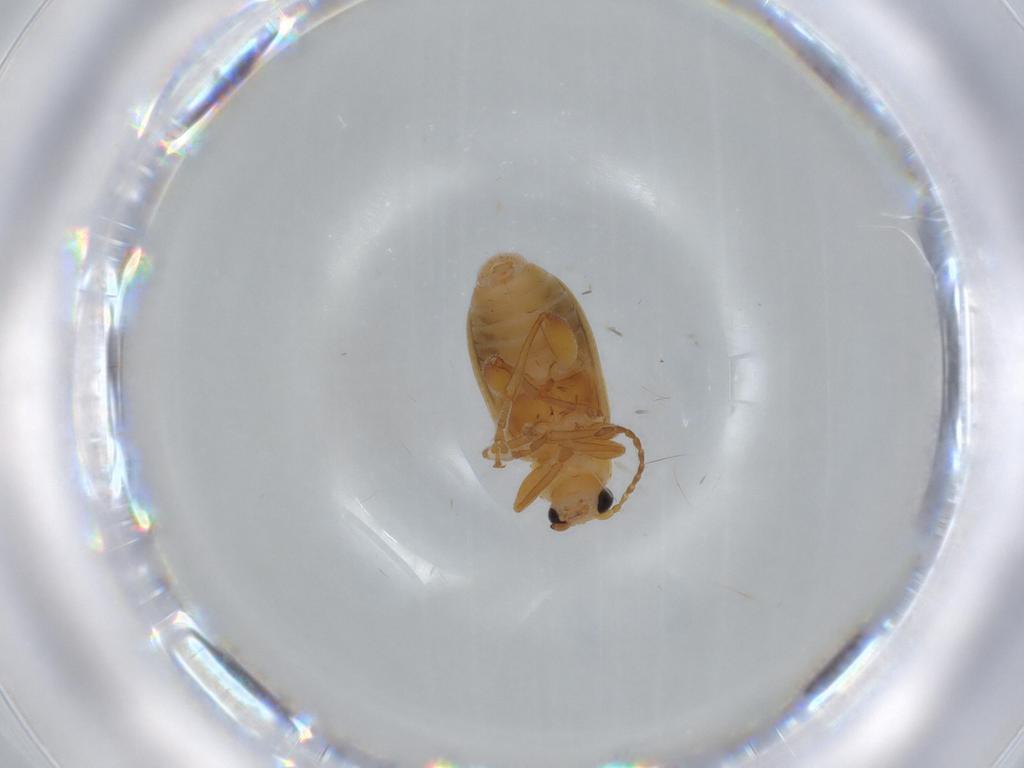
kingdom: Animalia
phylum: Arthropoda
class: Insecta
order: Coleoptera
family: Chrysomelidae
